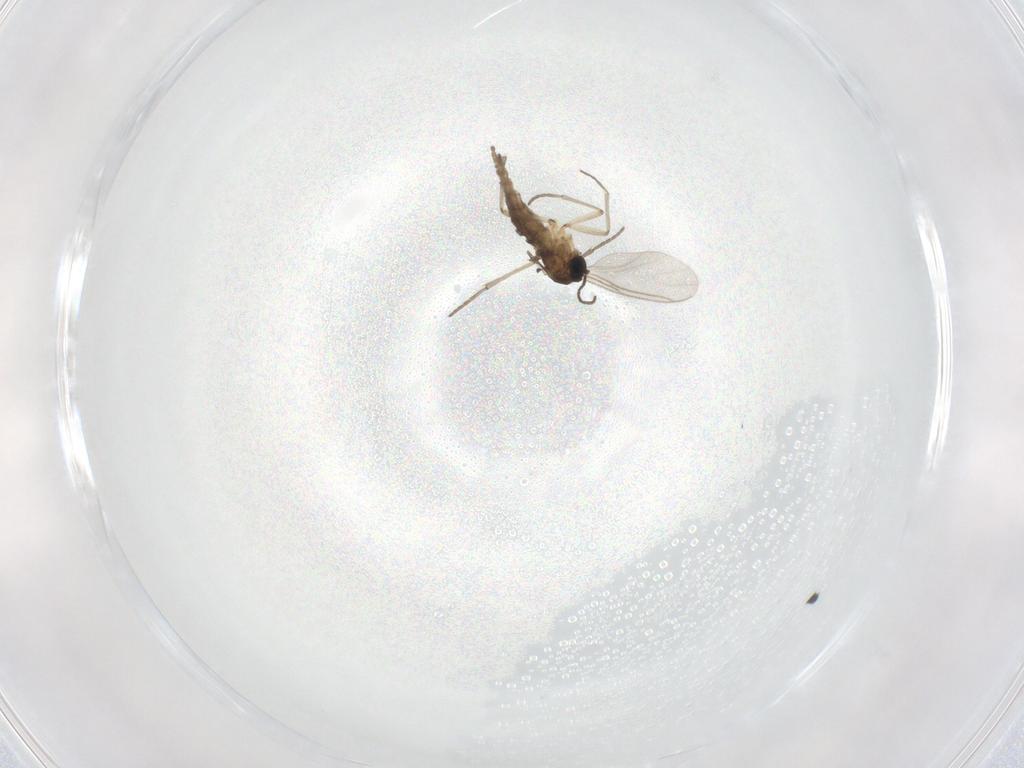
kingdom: Animalia
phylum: Arthropoda
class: Insecta
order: Diptera
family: Sciaridae
